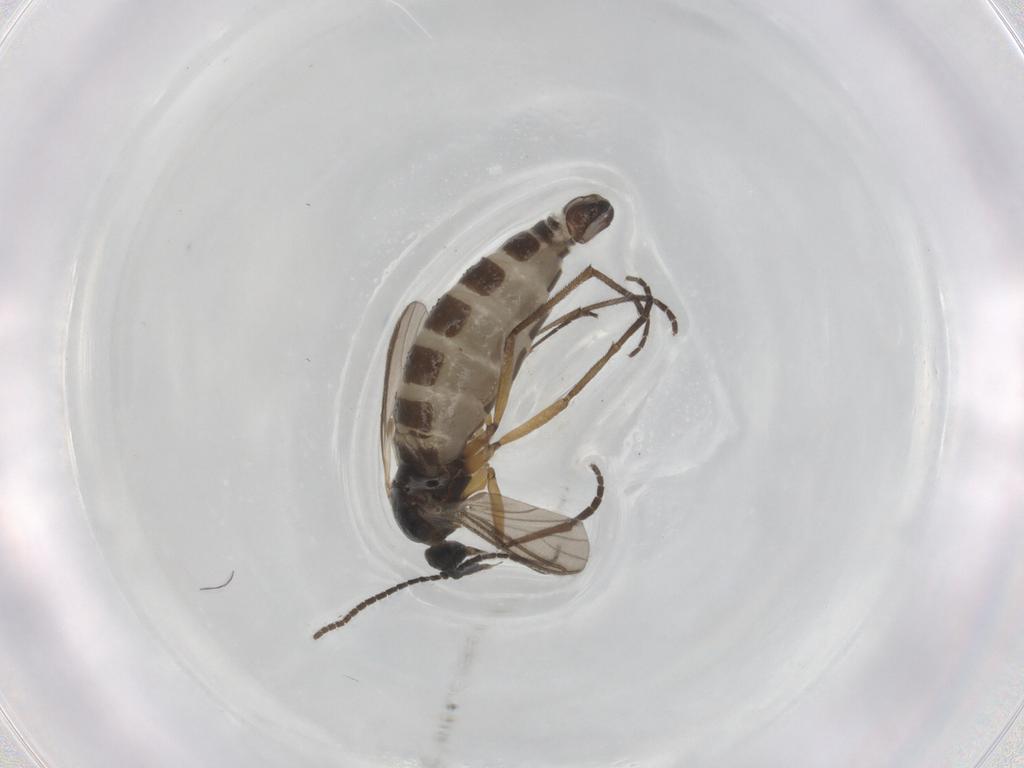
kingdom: Animalia
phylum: Arthropoda
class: Insecta
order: Diptera
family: Sciaridae
